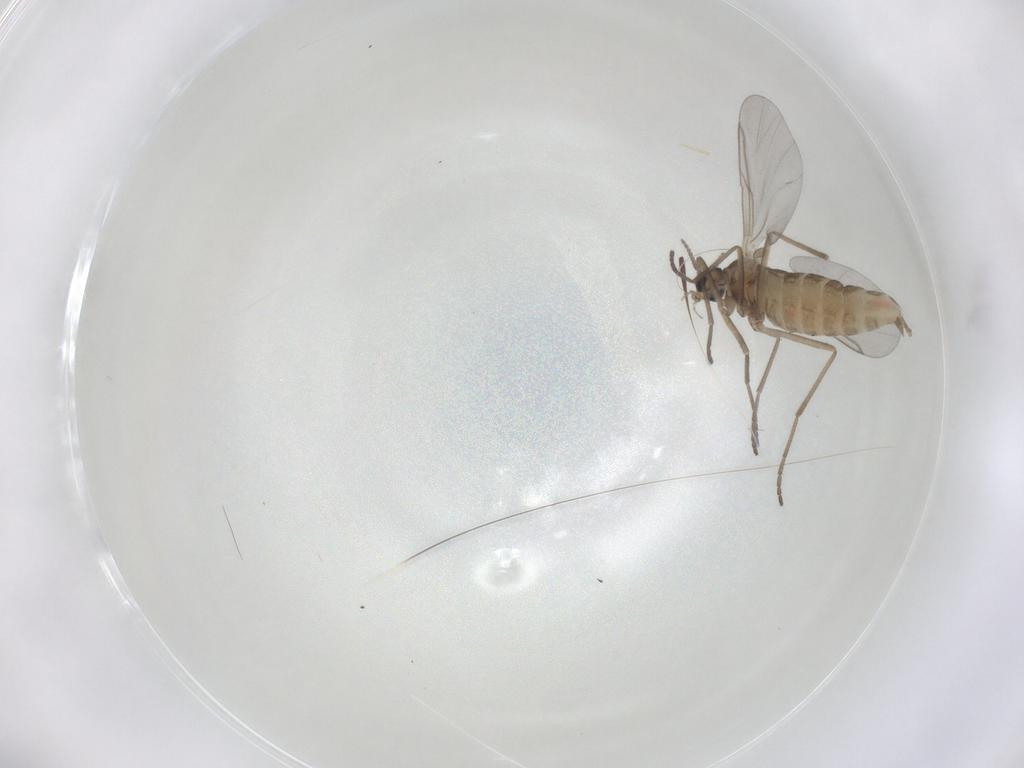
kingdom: Animalia
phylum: Arthropoda
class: Insecta
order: Diptera
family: Cecidomyiidae
